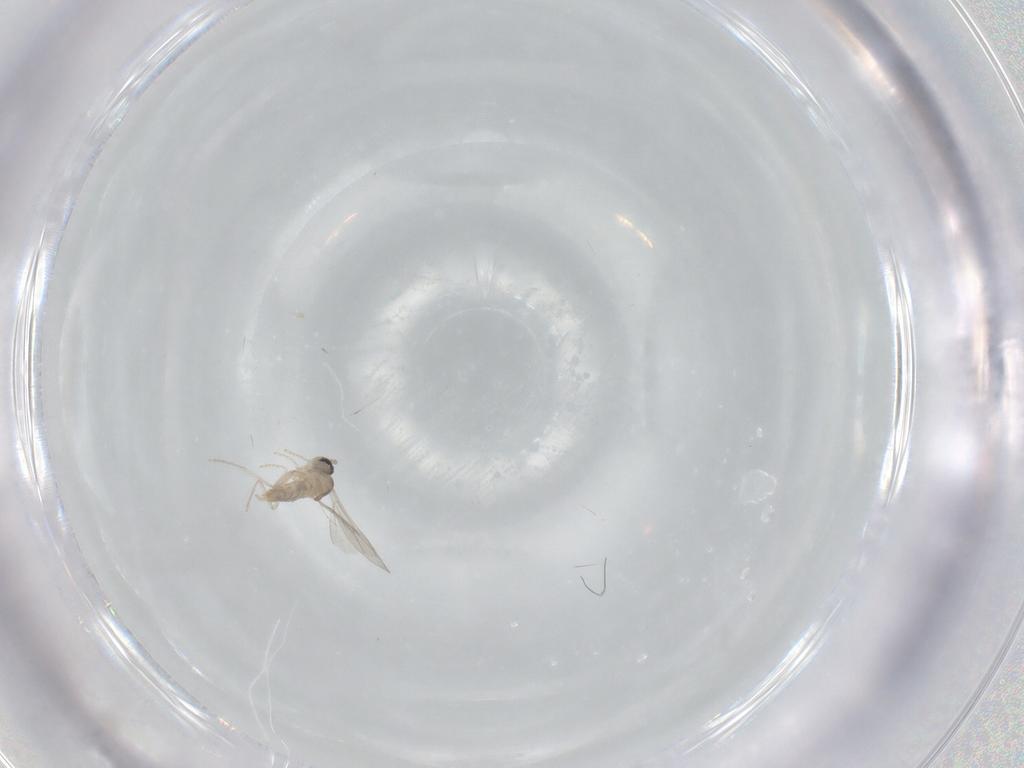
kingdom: Animalia
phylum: Arthropoda
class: Insecta
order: Diptera
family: Cecidomyiidae
